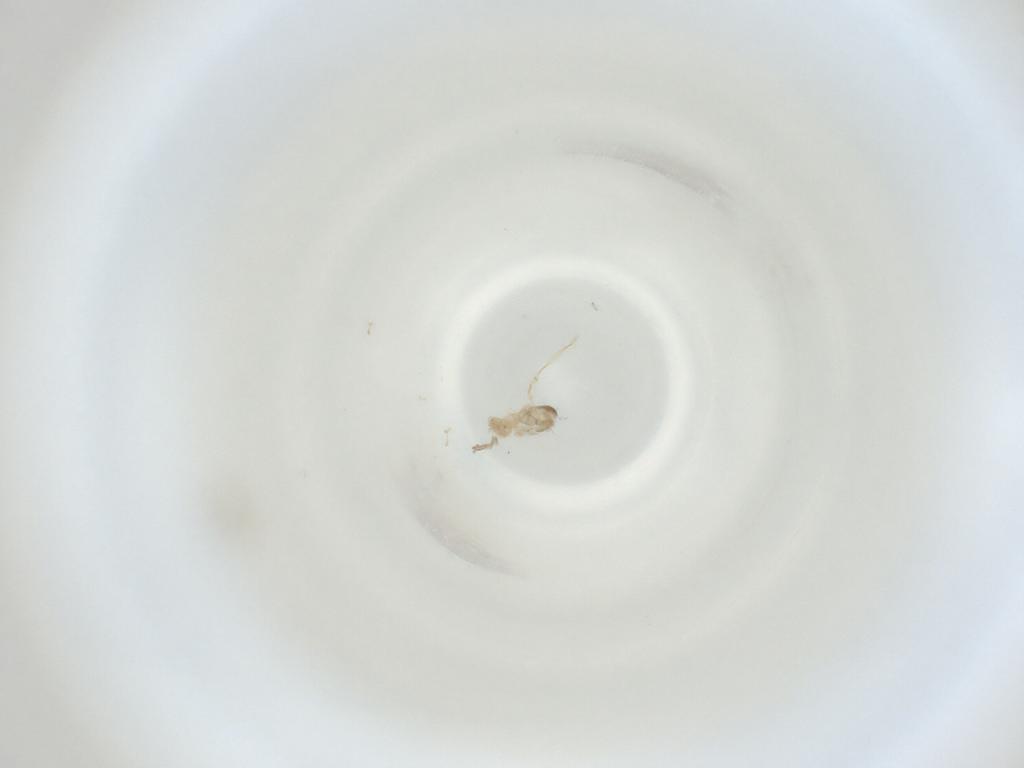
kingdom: Animalia
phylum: Arthropoda
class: Insecta
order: Diptera
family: Cecidomyiidae
